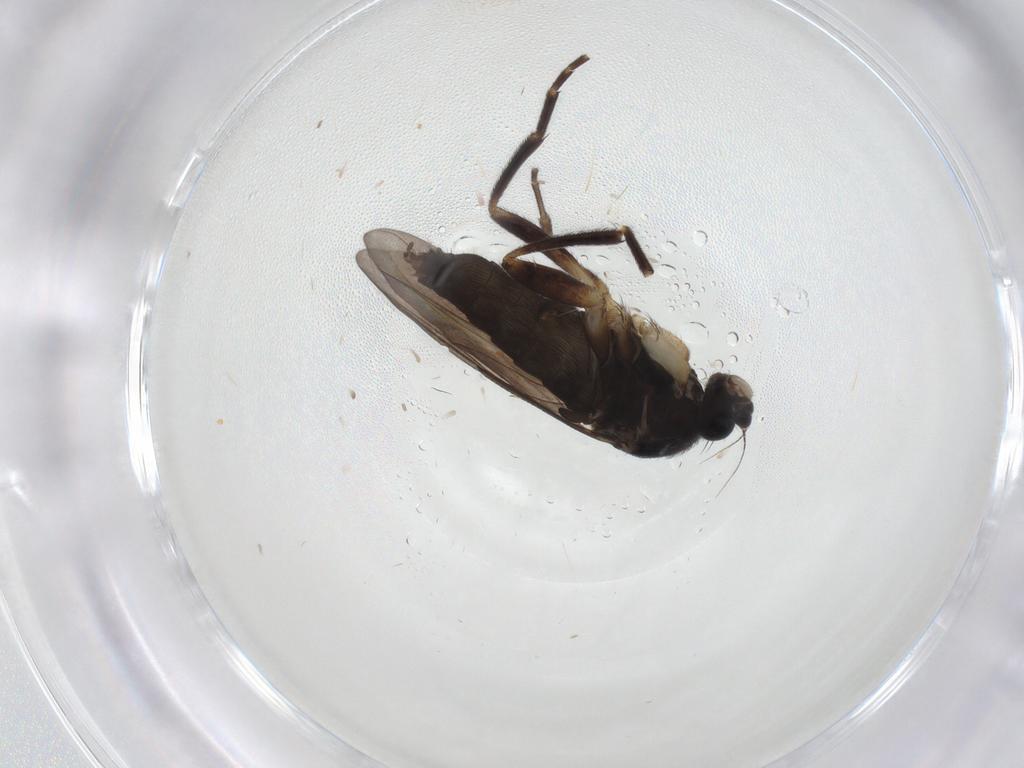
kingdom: Animalia
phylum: Arthropoda
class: Insecta
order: Diptera
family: Phoridae
